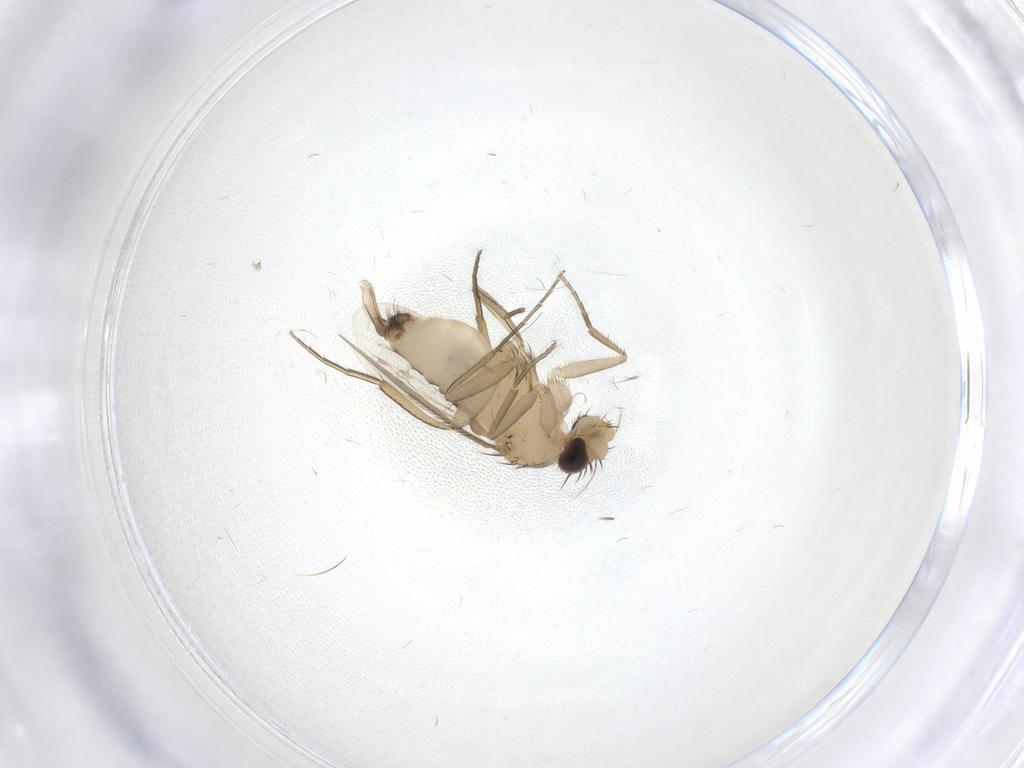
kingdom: Animalia
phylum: Arthropoda
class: Insecta
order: Diptera
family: Phoridae
